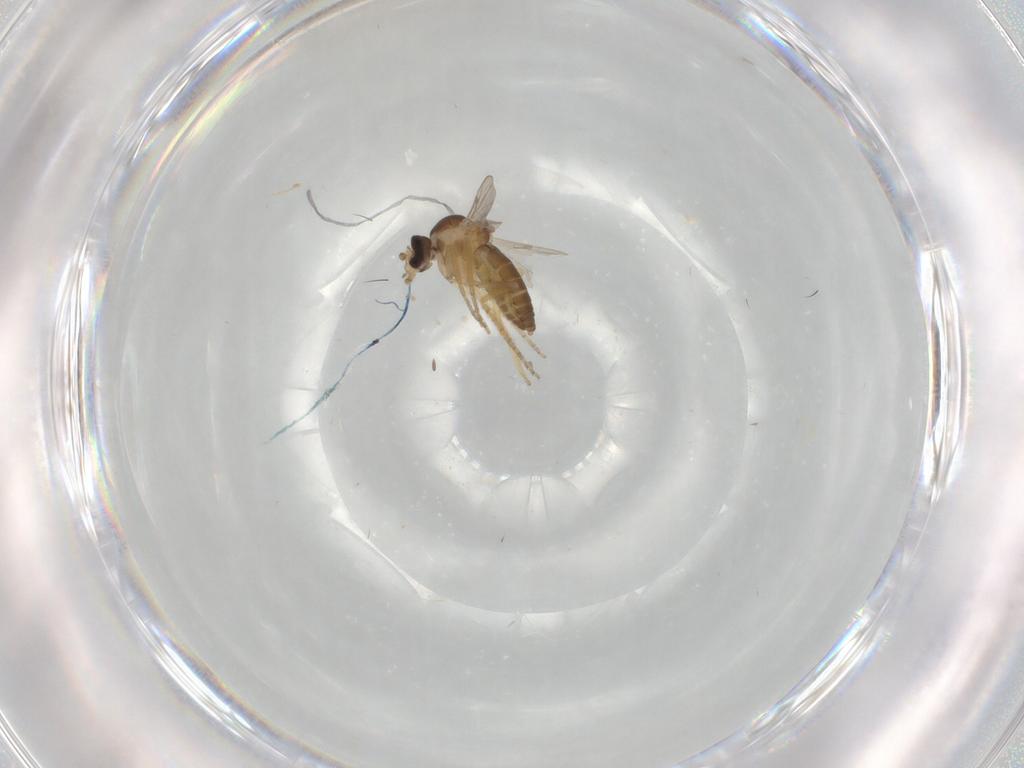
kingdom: Animalia
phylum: Arthropoda
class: Insecta
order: Diptera
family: Ceratopogonidae
